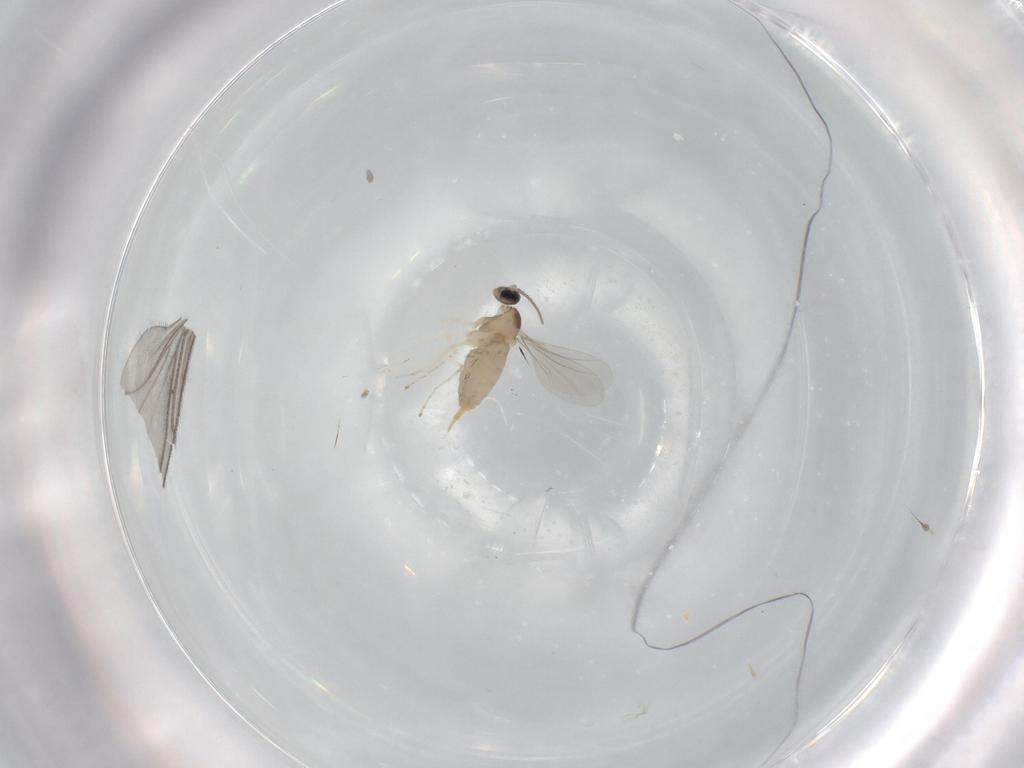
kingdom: Animalia
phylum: Arthropoda
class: Insecta
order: Diptera
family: Cecidomyiidae
